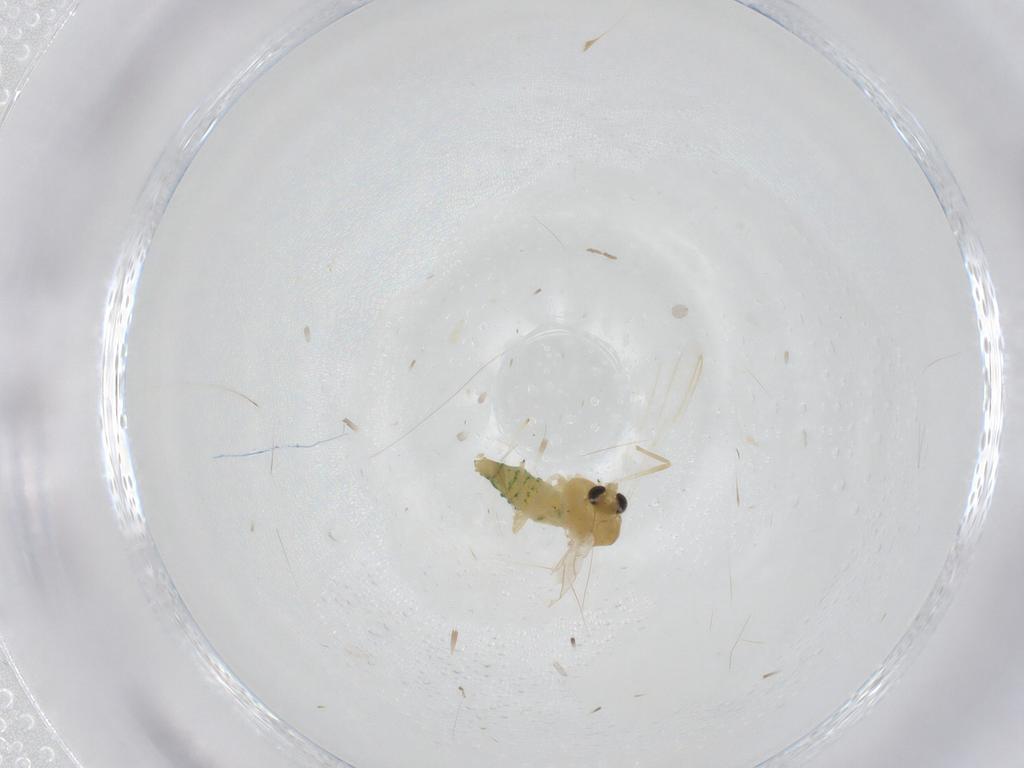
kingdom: Animalia
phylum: Arthropoda
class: Insecta
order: Diptera
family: Chironomidae
